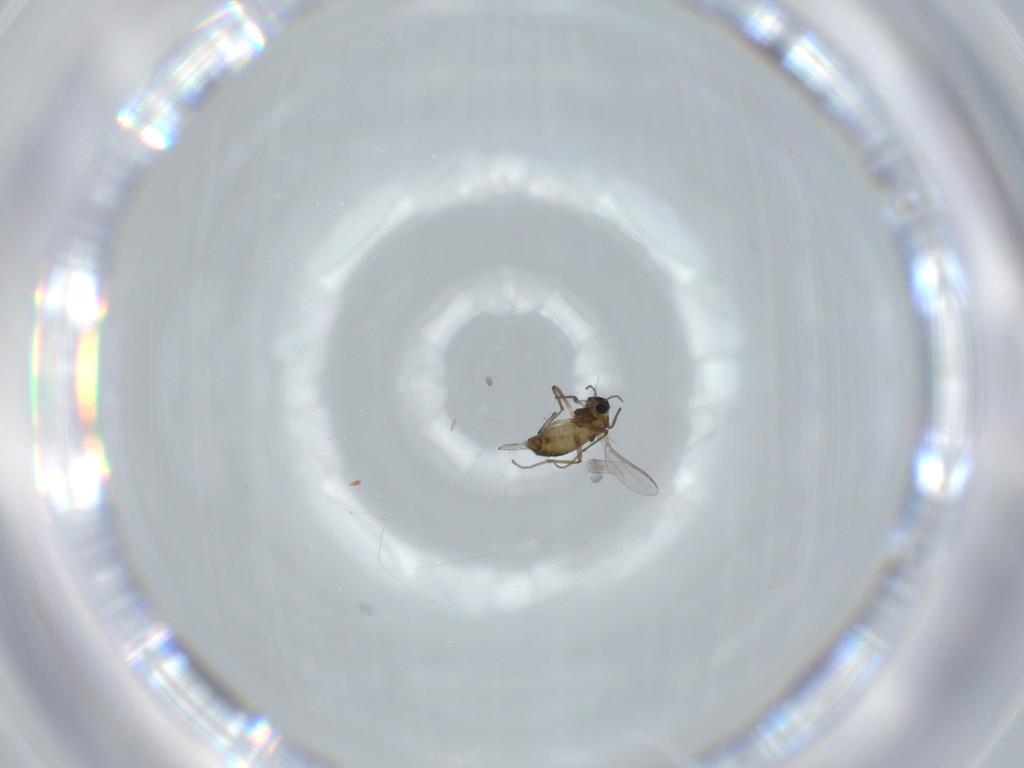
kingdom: Animalia
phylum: Arthropoda
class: Insecta
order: Diptera
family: Chironomidae
